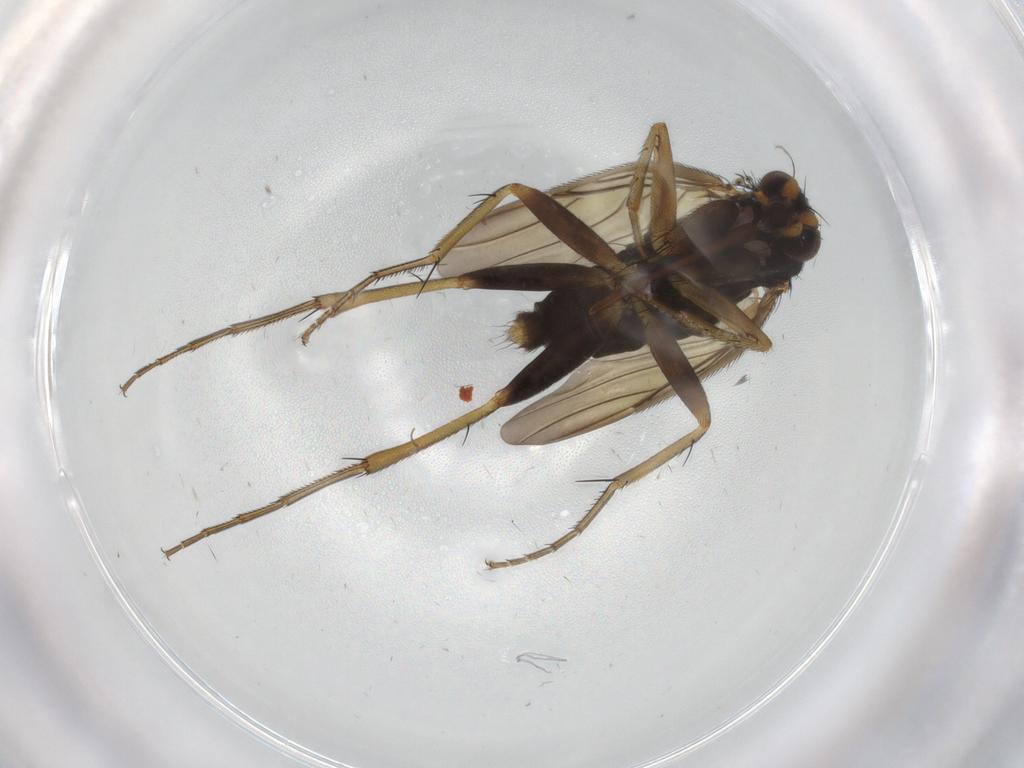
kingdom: Animalia
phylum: Arthropoda
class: Insecta
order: Diptera
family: Phoridae
